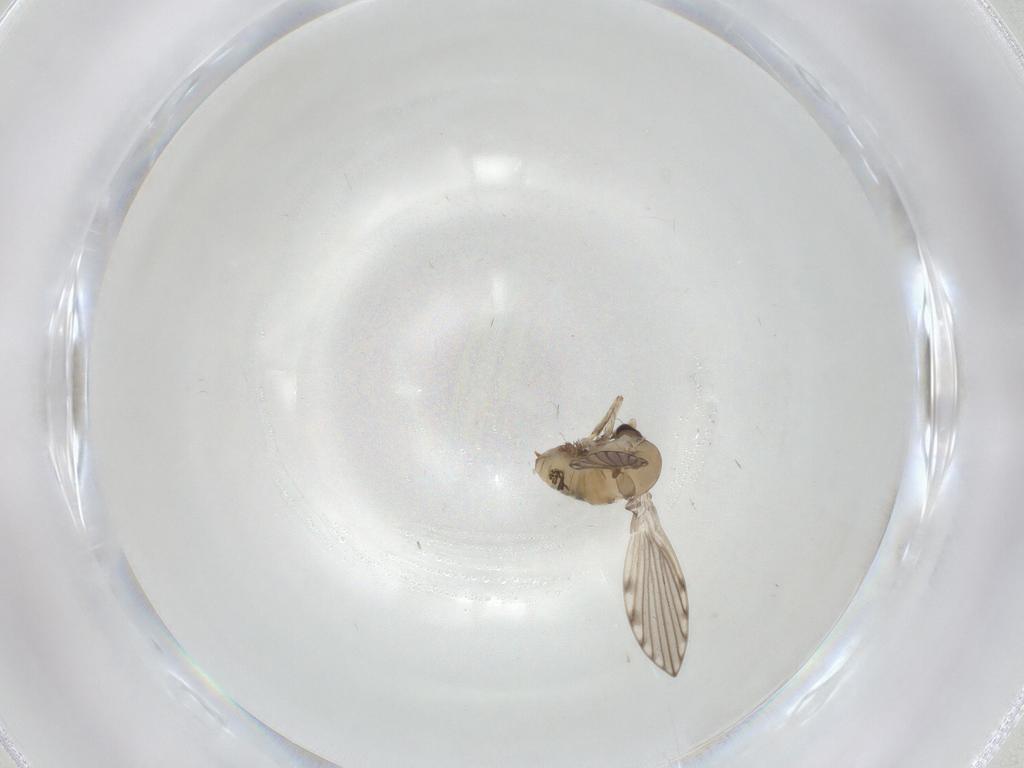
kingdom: Animalia
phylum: Arthropoda
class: Insecta
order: Diptera
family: Psychodidae
